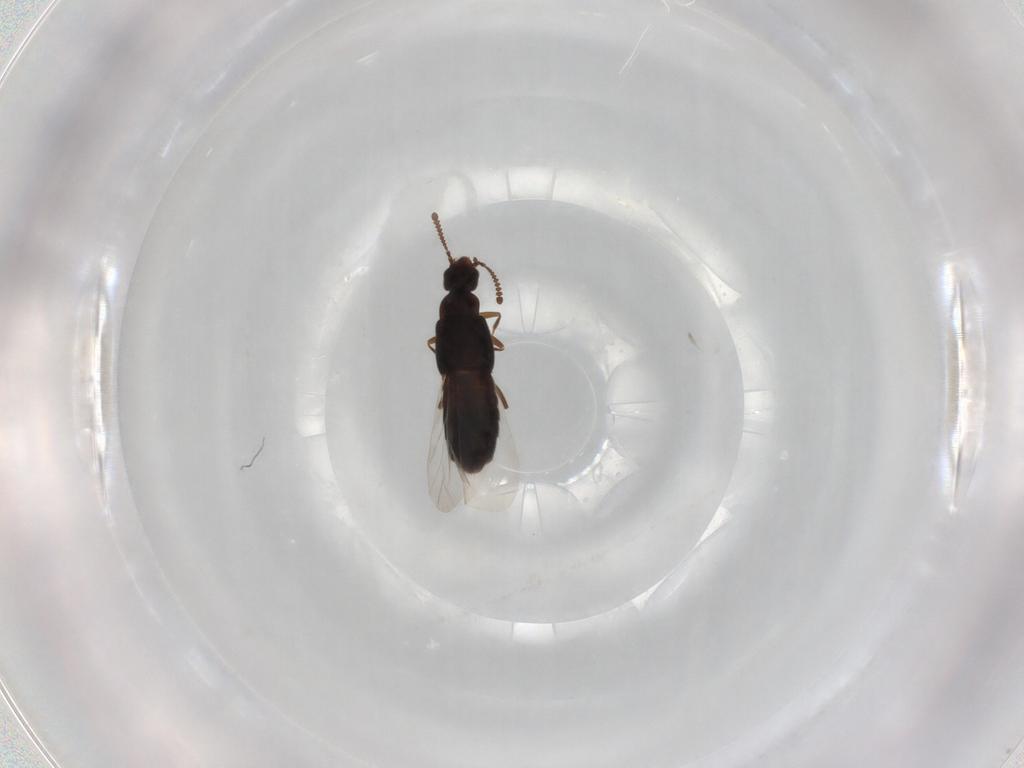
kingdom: Animalia
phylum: Arthropoda
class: Insecta
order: Coleoptera
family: Staphylinidae
